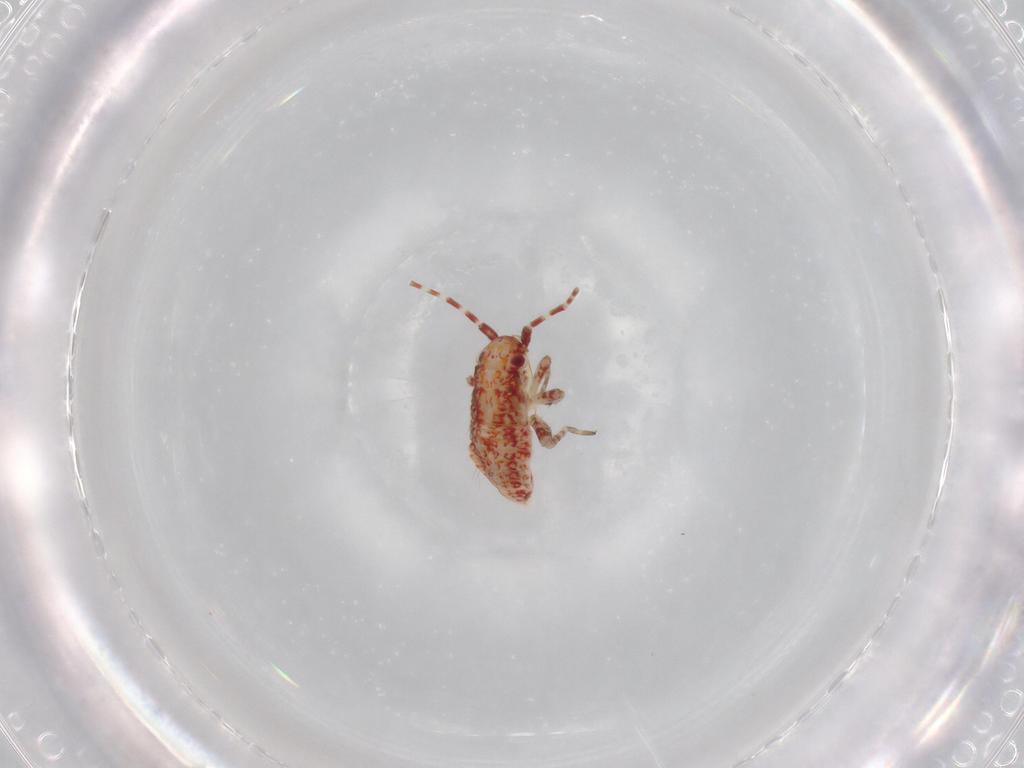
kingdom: Animalia
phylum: Arthropoda
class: Insecta
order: Hemiptera
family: Miridae
